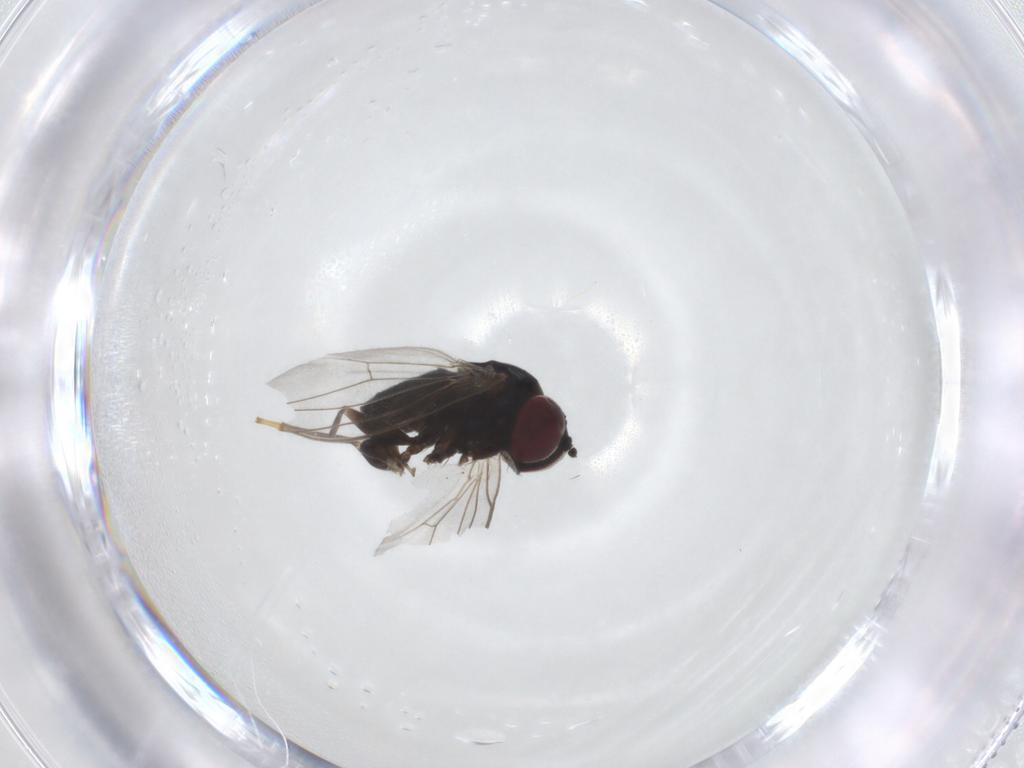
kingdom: Animalia
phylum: Arthropoda
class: Insecta
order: Diptera
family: Dolichopodidae
